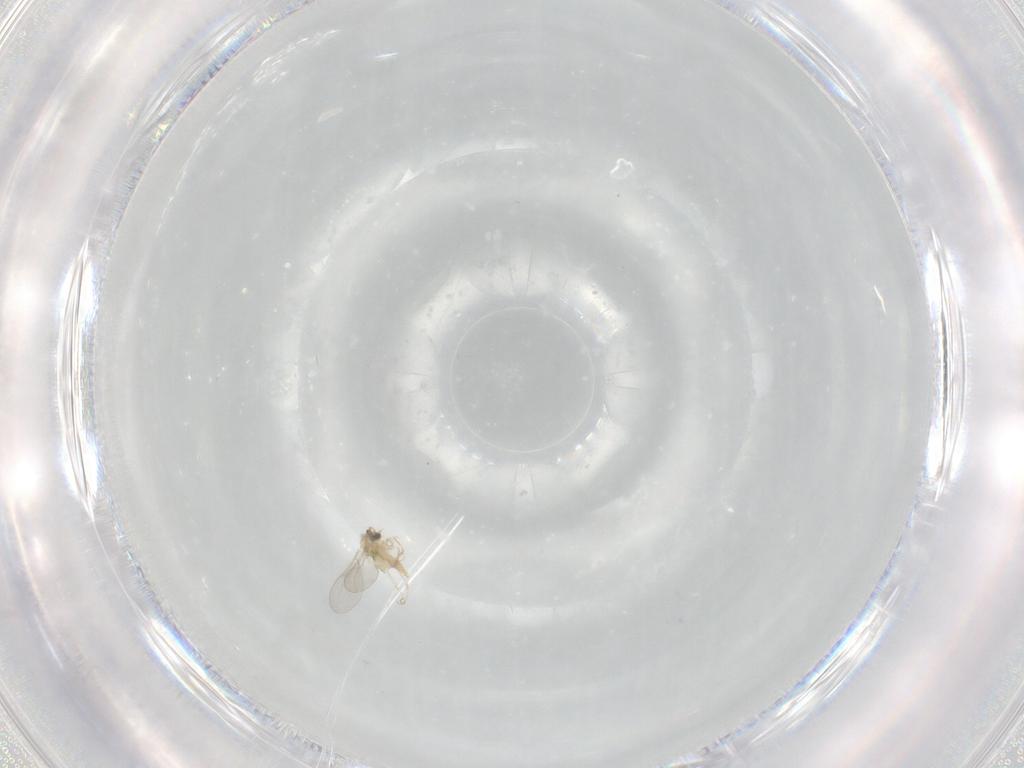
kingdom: Animalia
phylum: Arthropoda
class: Insecta
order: Diptera
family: Cecidomyiidae
